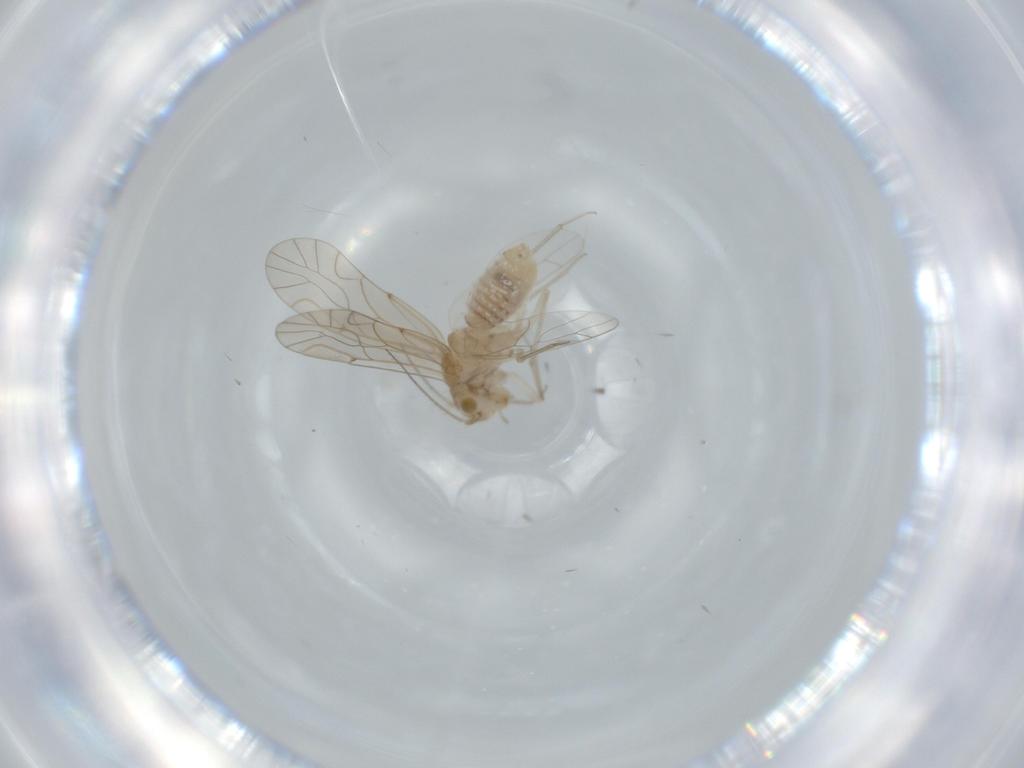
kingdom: Animalia
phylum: Arthropoda
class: Insecta
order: Psocodea
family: Lachesillidae
